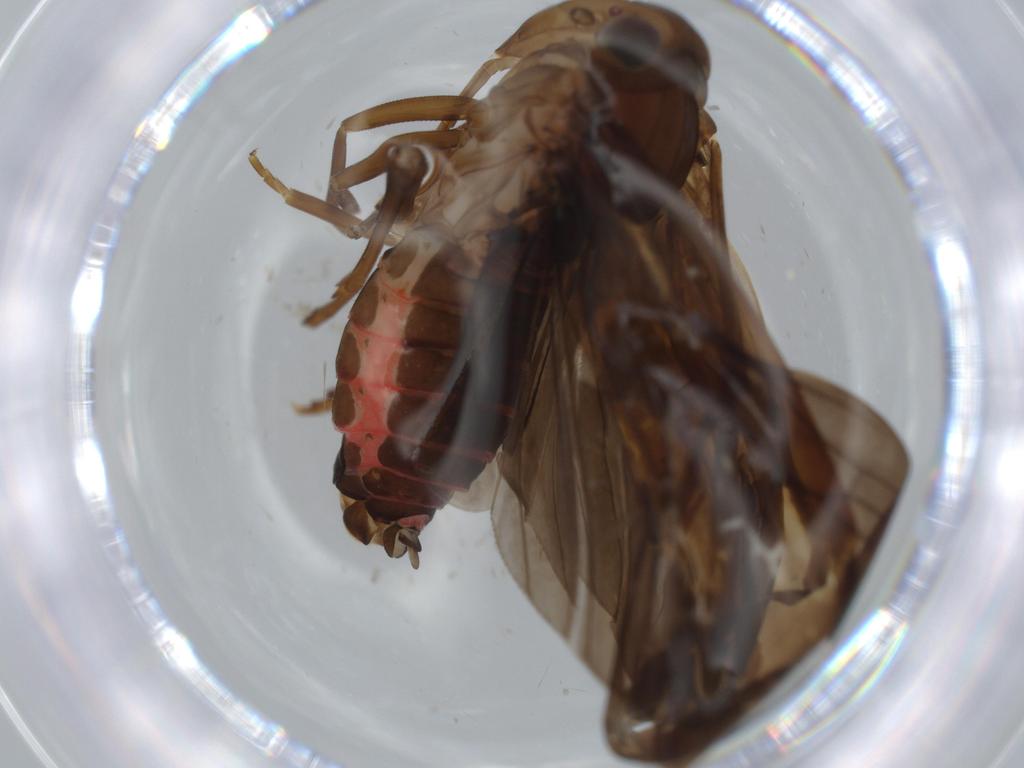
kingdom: Animalia
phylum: Arthropoda
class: Insecta
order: Hemiptera
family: Achilidae
